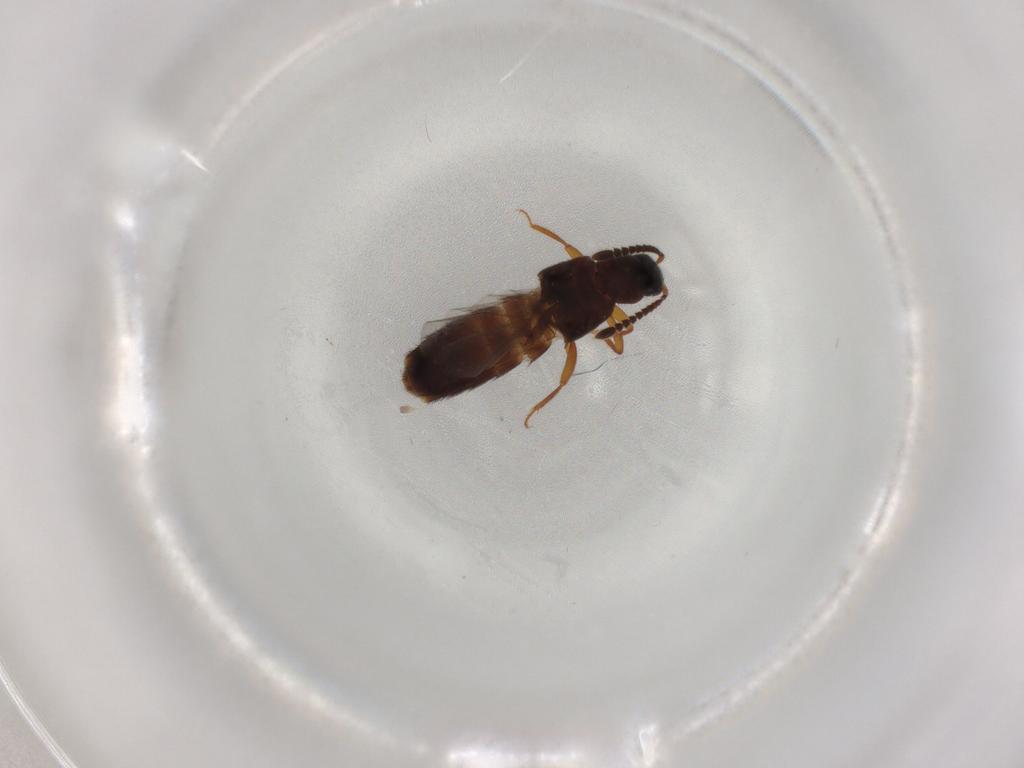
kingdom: Animalia
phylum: Arthropoda
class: Insecta
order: Coleoptera
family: Staphylinidae
